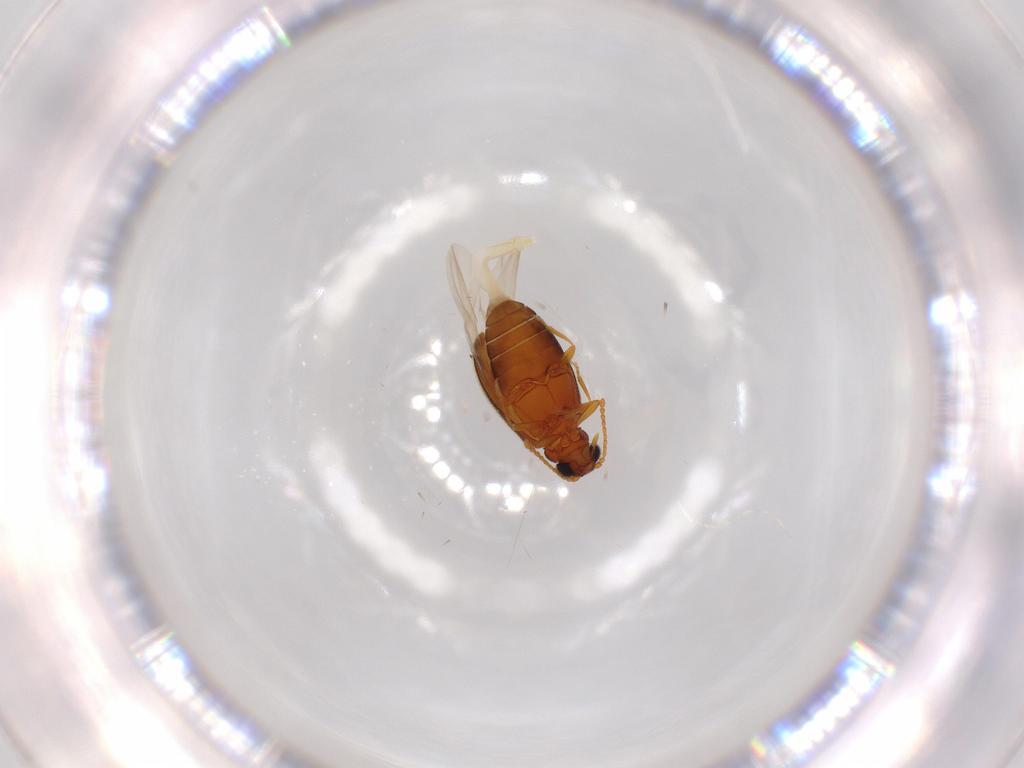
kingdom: Animalia
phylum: Arthropoda
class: Insecta
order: Coleoptera
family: Aderidae
